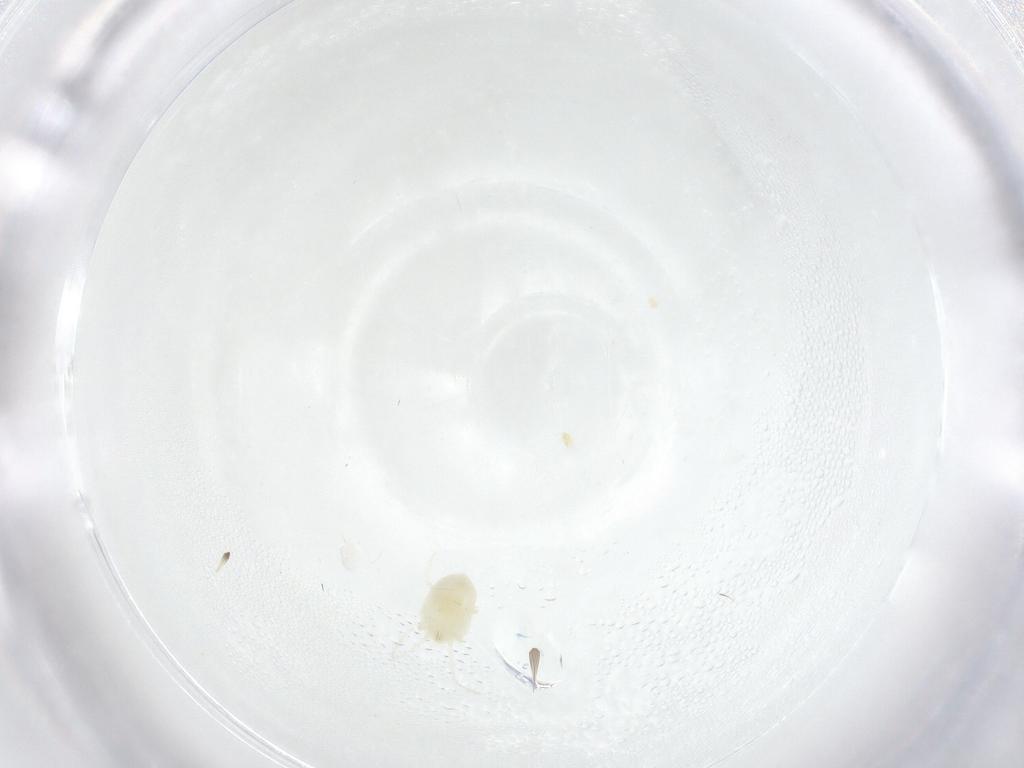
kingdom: Animalia
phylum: Arthropoda
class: Arachnida
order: Trombidiformes
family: Tetranychidae
